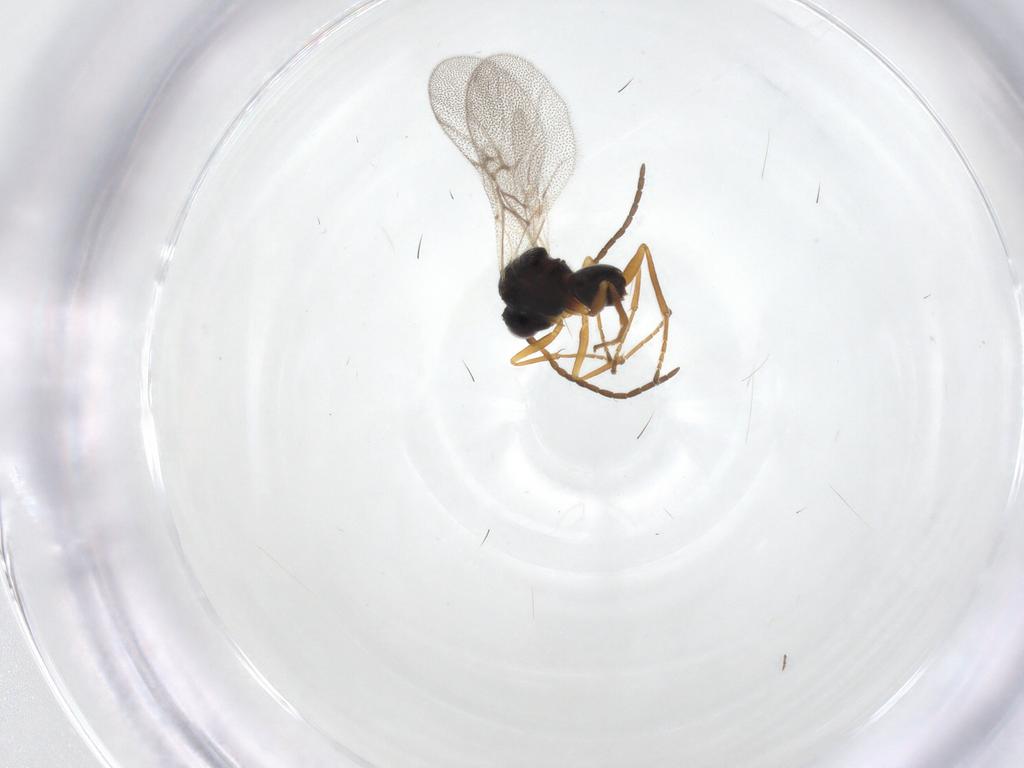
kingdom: Animalia
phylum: Arthropoda
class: Insecta
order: Hymenoptera
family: Cynipidae
